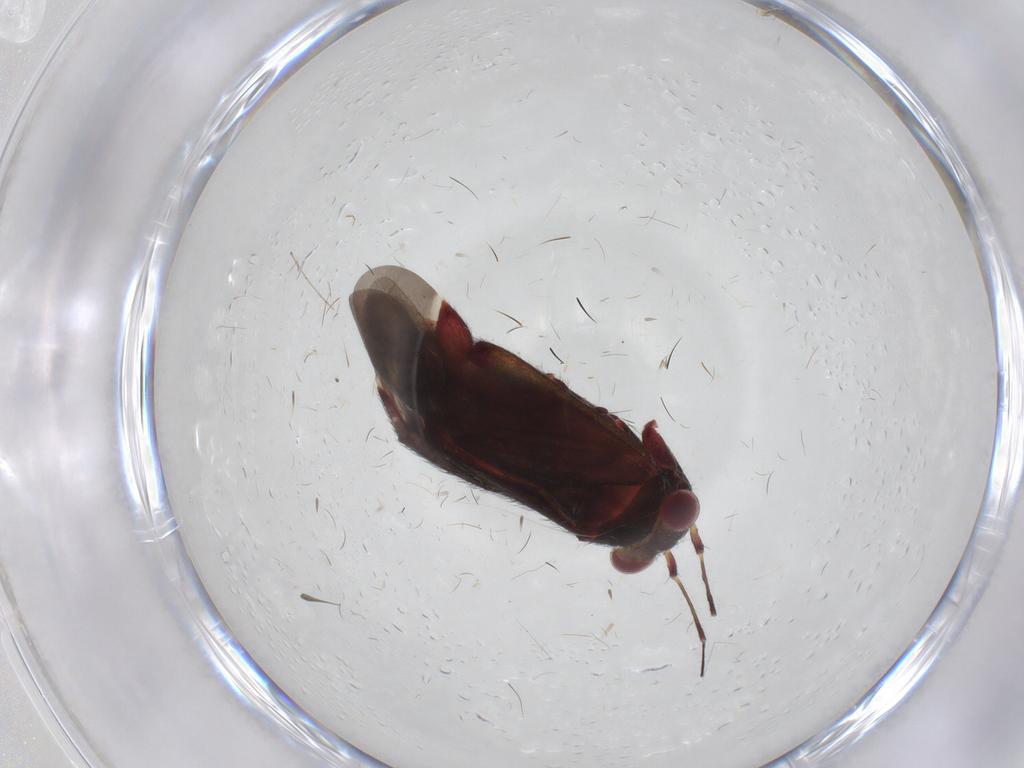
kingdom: Animalia
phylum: Arthropoda
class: Insecta
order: Hemiptera
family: Miridae
